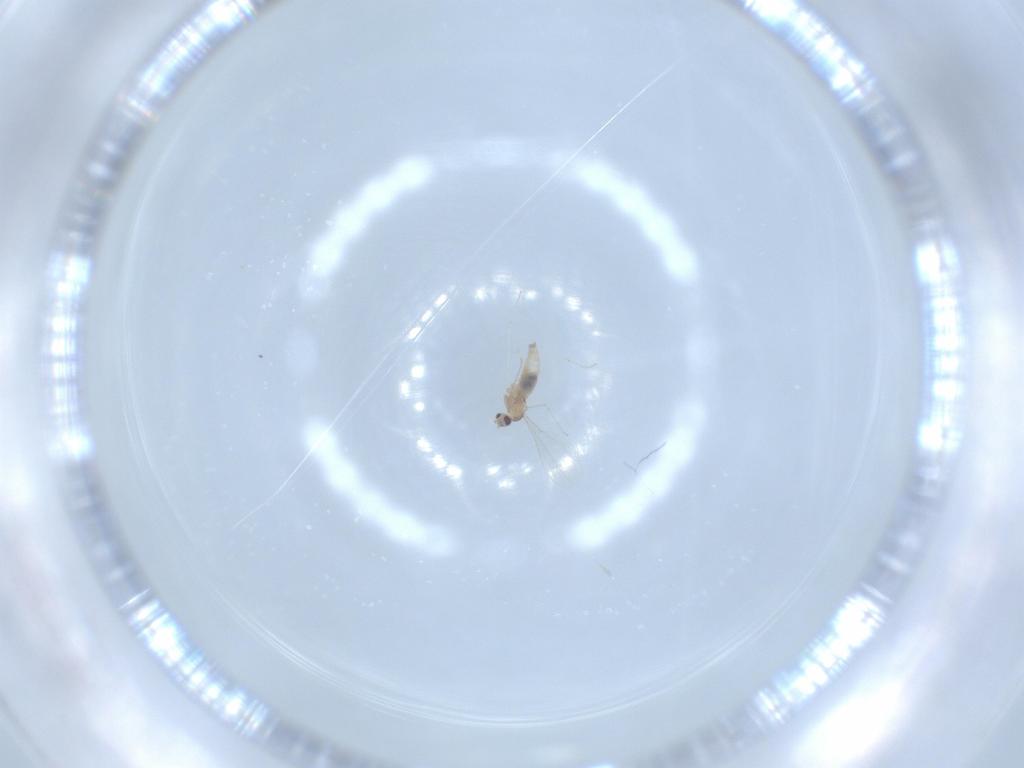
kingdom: Animalia
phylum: Arthropoda
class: Insecta
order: Diptera
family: Cecidomyiidae
